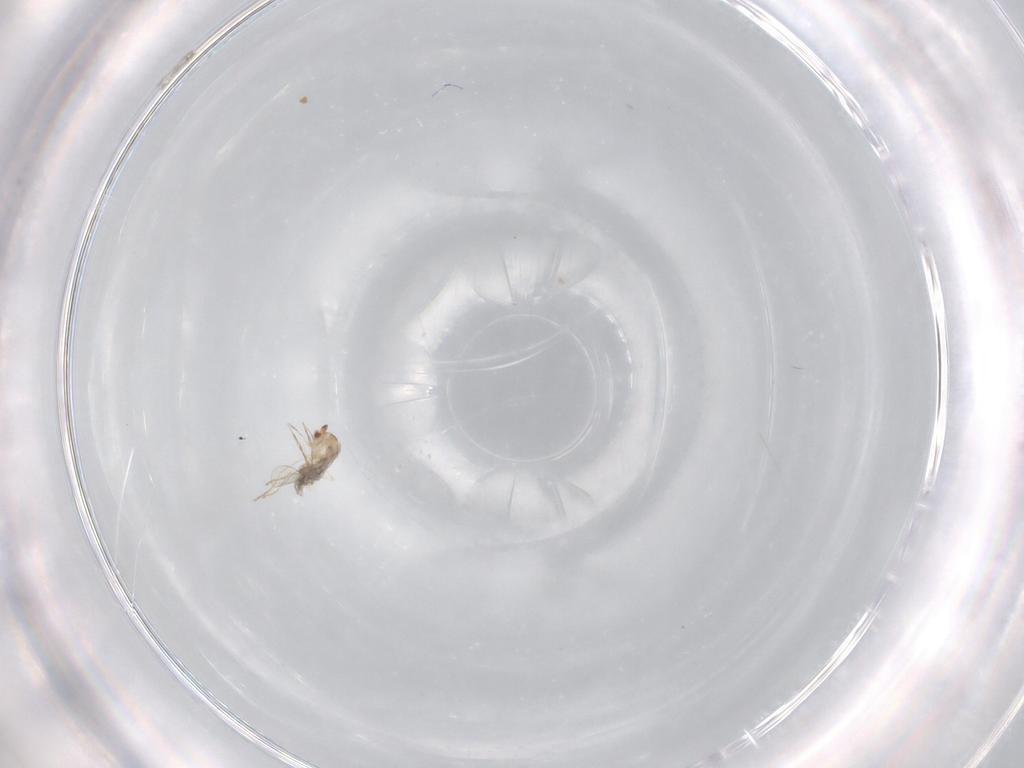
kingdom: Animalia
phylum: Arthropoda
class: Insecta
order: Diptera
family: Cecidomyiidae
